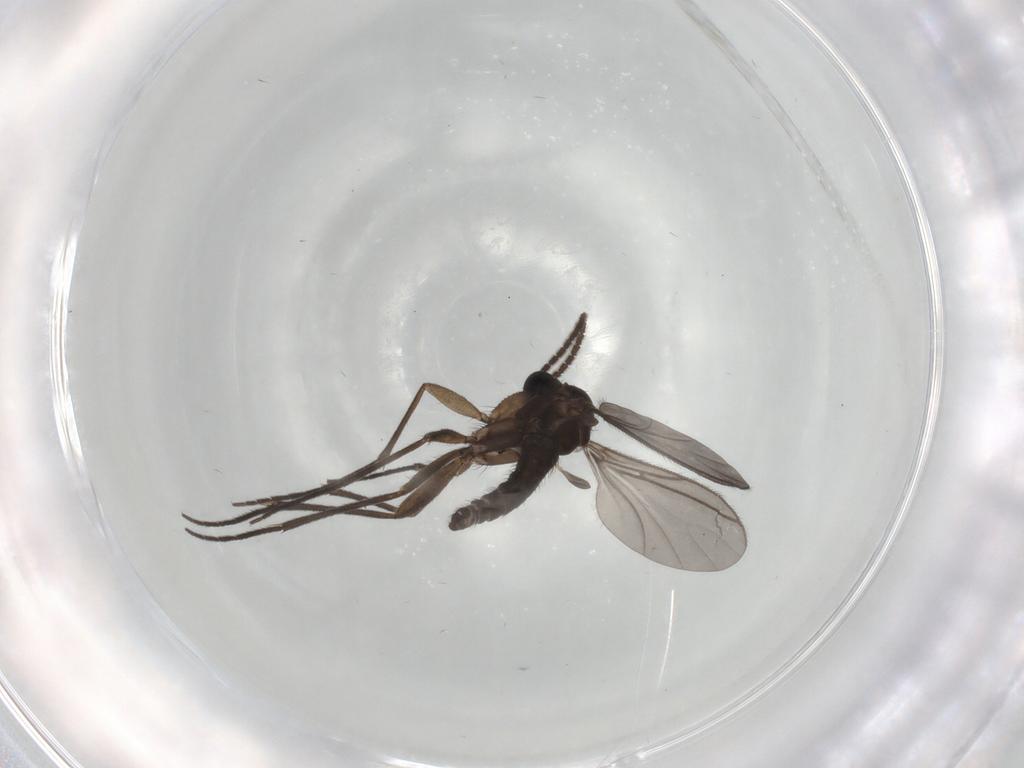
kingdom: Animalia
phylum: Arthropoda
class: Insecta
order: Diptera
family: Sciaridae
